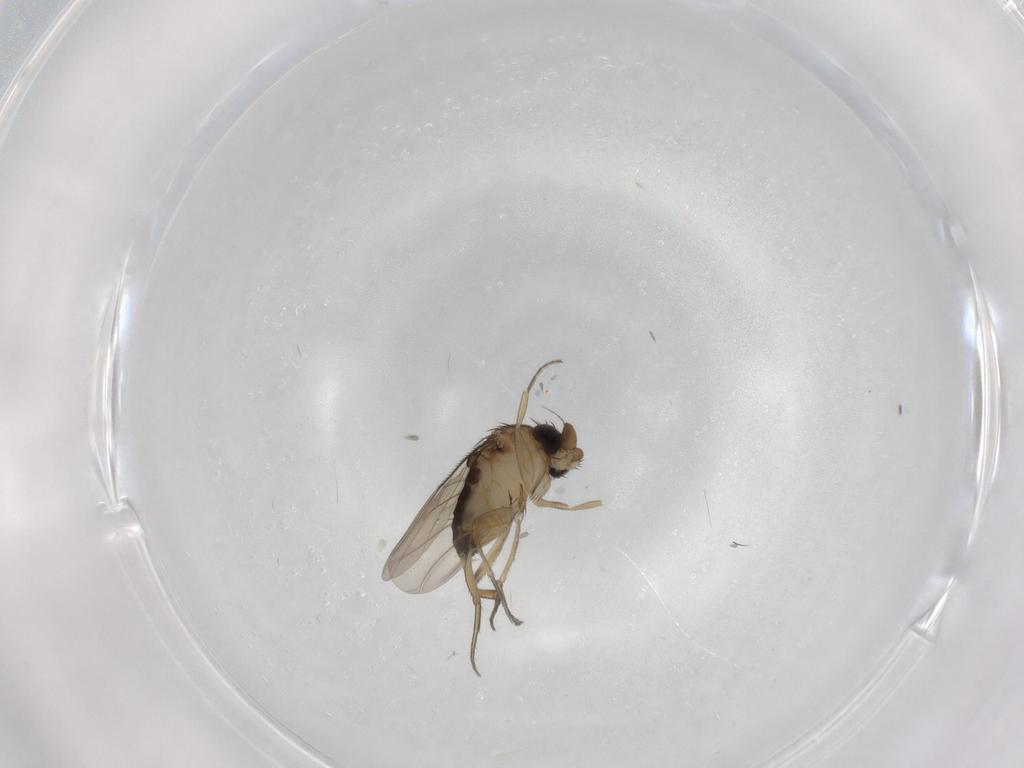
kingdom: Animalia
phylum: Arthropoda
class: Insecta
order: Diptera
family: Phoridae
